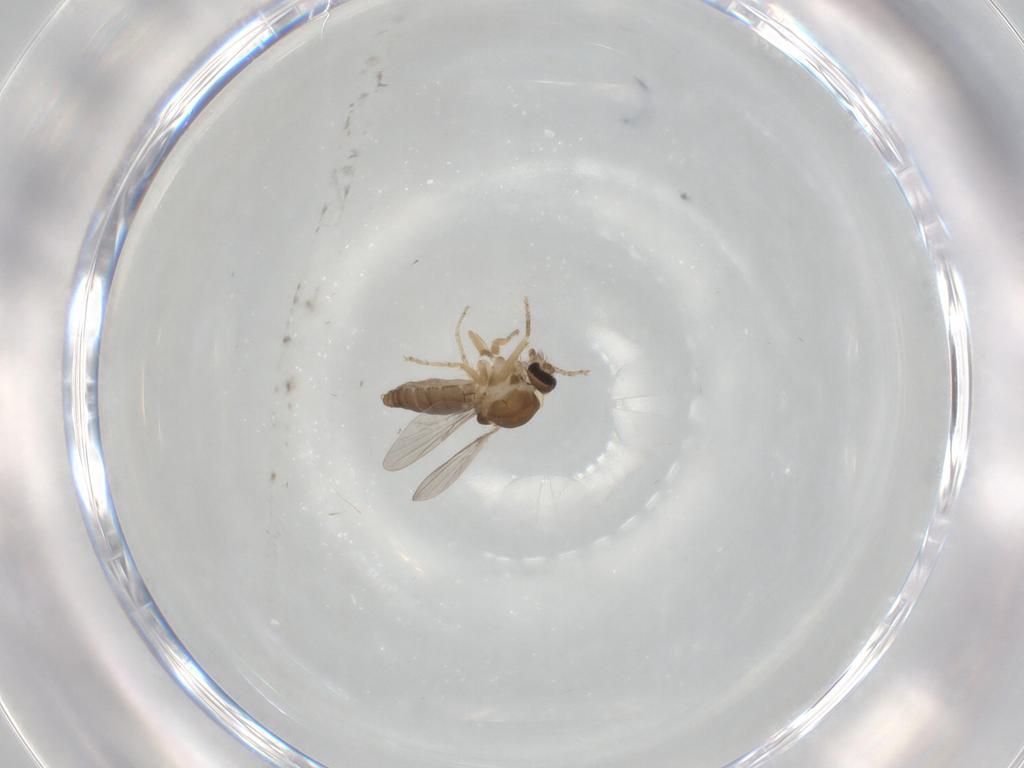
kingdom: Animalia
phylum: Arthropoda
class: Insecta
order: Diptera
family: Ceratopogonidae
